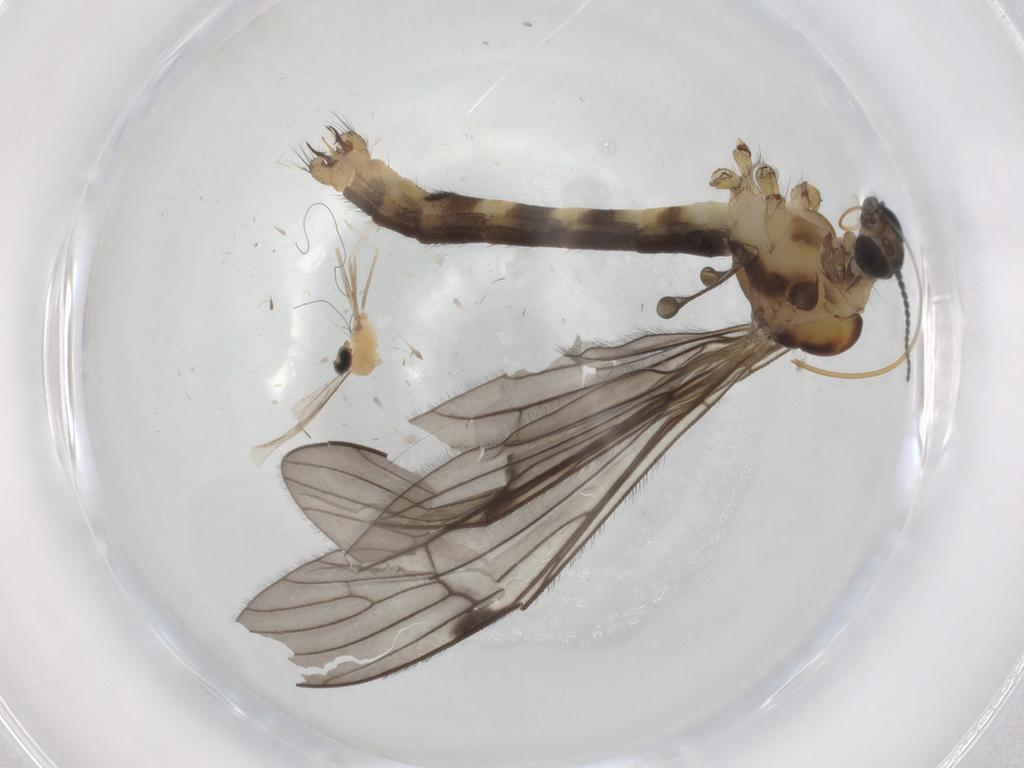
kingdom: Animalia
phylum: Arthropoda
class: Insecta
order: Diptera
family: Limoniidae
